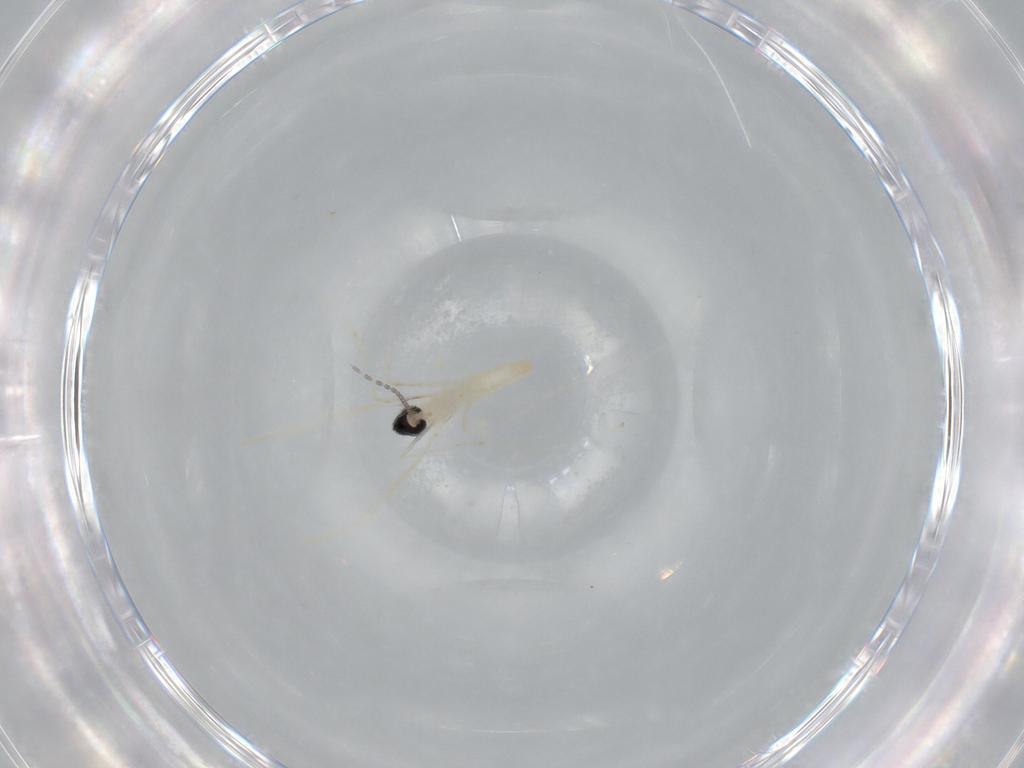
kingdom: Animalia
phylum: Arthropoda
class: Insecta
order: Diptera
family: Cecidomyiidae
